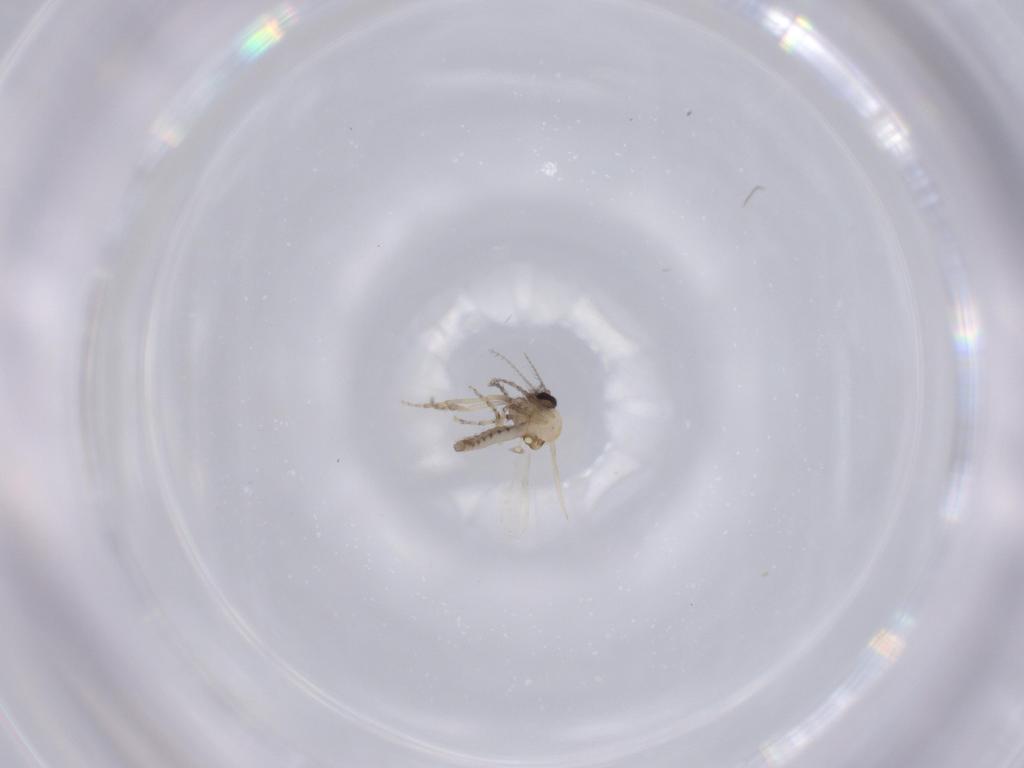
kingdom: Animalia
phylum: Arthropoda
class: Insecta
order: Diptera
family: Ceratopogonidae
